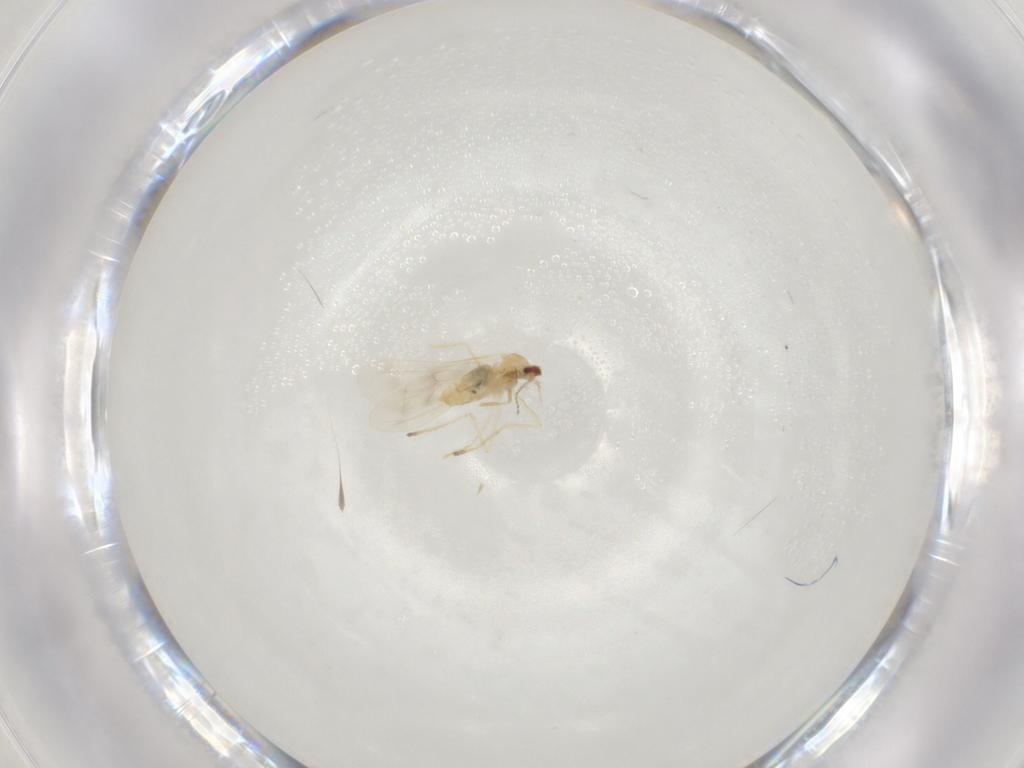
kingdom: Animalia
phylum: Arthropoda
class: Insecta
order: Diptera
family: Cecidomyiidae
